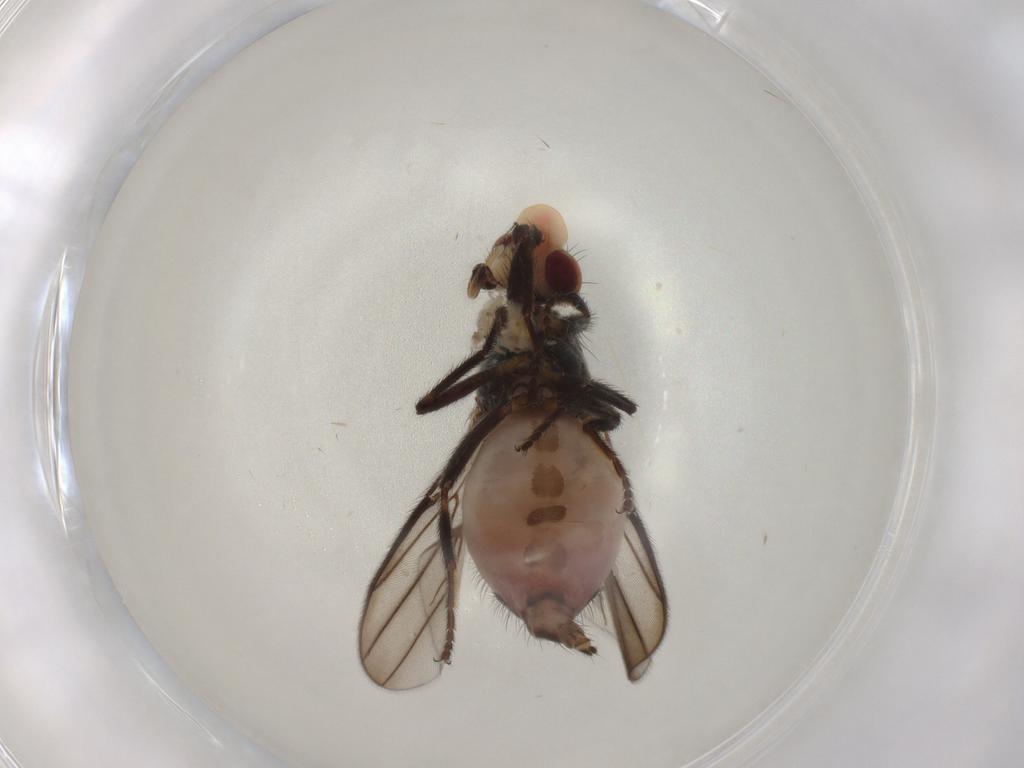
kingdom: Animalia
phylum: Arthropoda
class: Insecta
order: Diptera
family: Chloropidae
